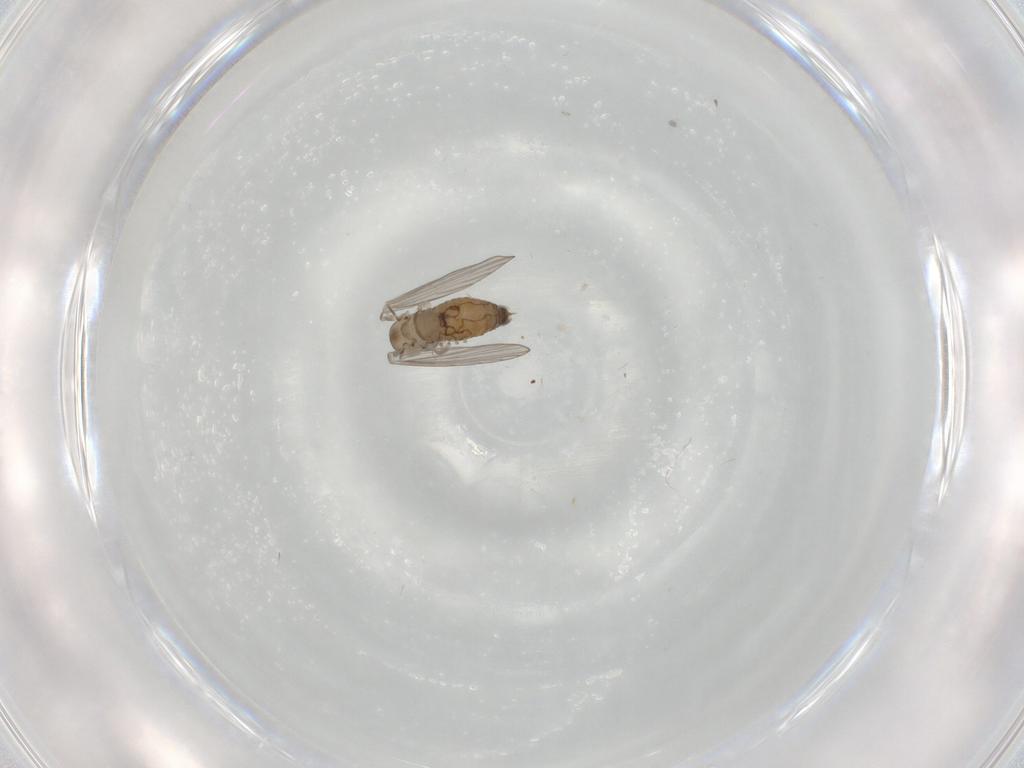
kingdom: Animalia
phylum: Arthropoda
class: Insecta
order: Diptera
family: Psychodidae
